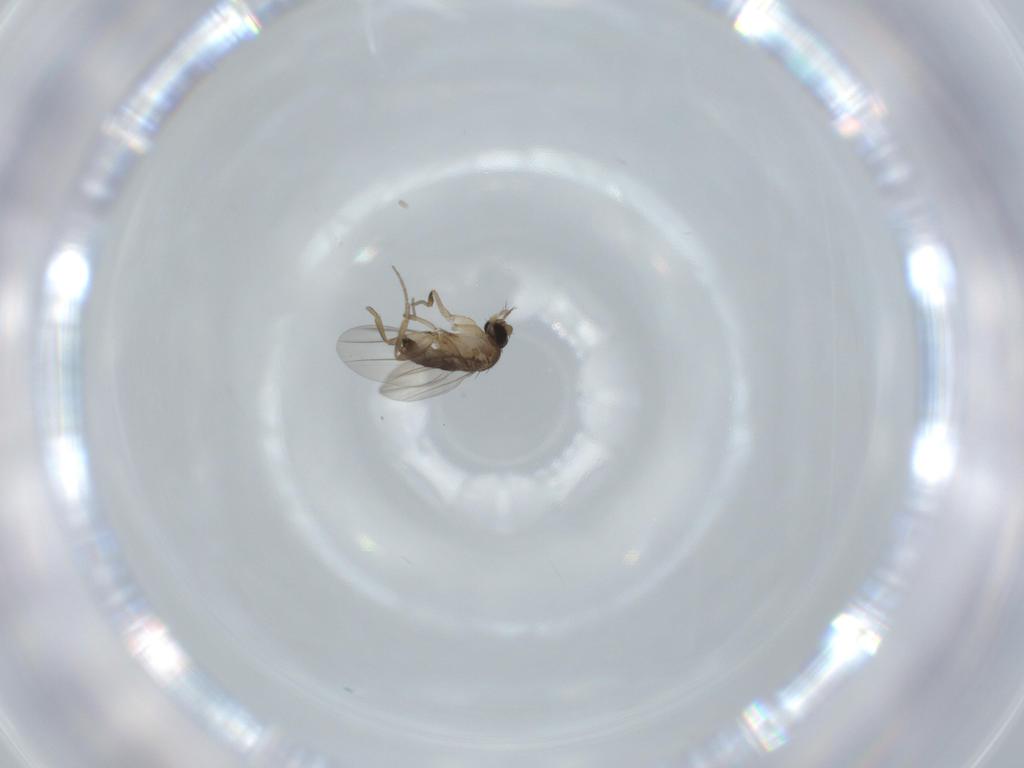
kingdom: Animalia
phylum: Arthropoda
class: Insecta
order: Diptera
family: Phoridae
